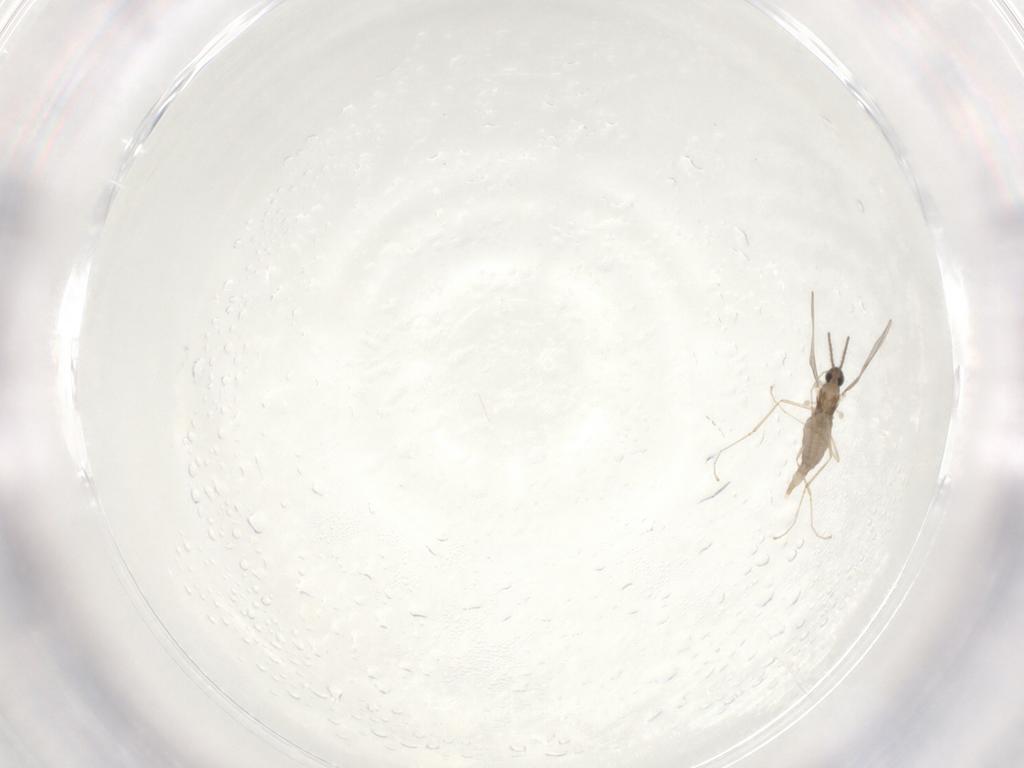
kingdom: Animalia
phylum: Arthropoda
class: Insecta
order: Diptera
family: Cecidomyiidae
